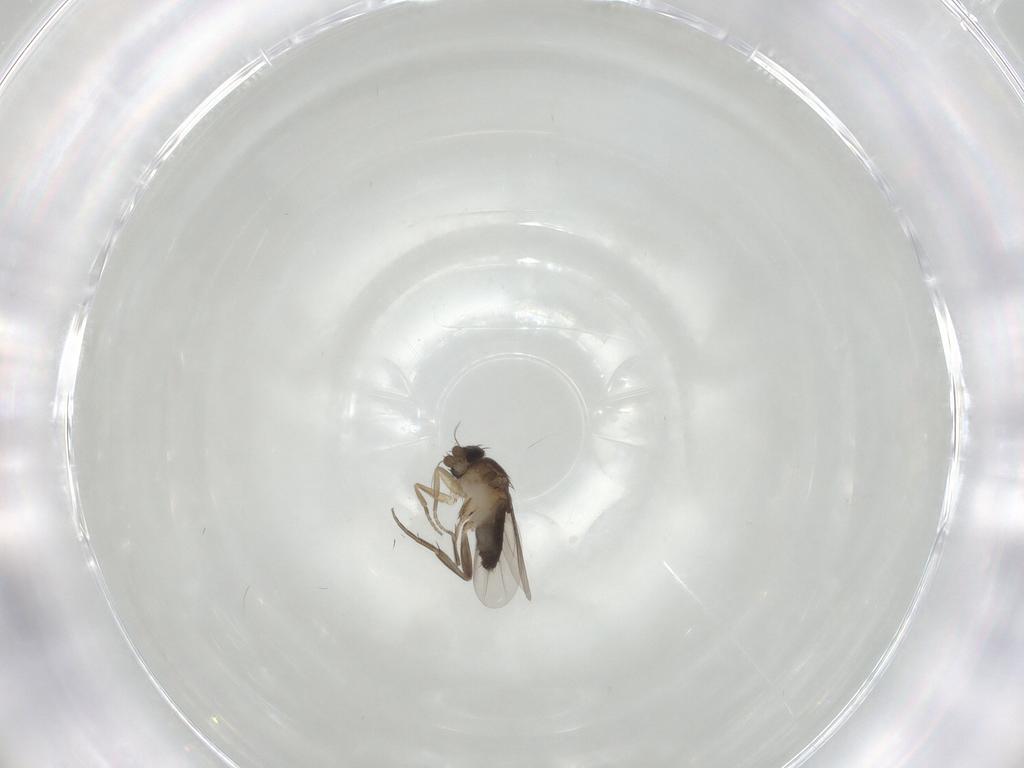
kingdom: Animalia
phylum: Arthropoda
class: Insecta
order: Diptera
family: Phoridae
